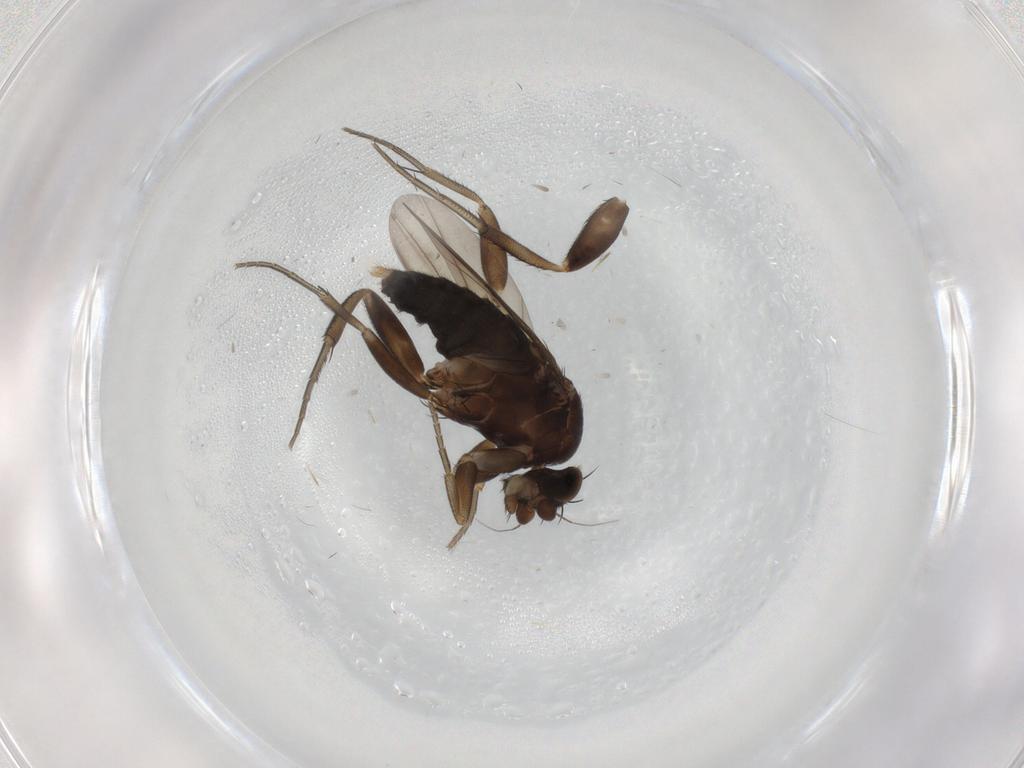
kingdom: Animalia
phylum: Arthropoda
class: Insecta
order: Diptera
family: Phoridae
